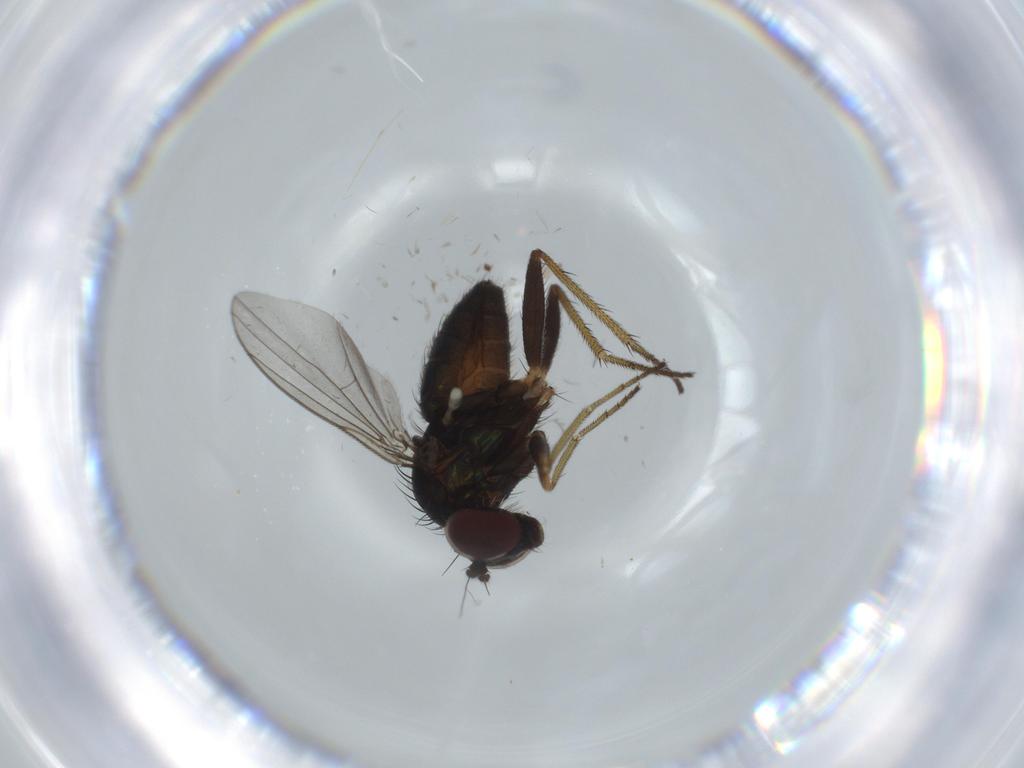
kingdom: Animalia
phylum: Arthropoda
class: Insecta
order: Diptera
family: Dolichopodidae
